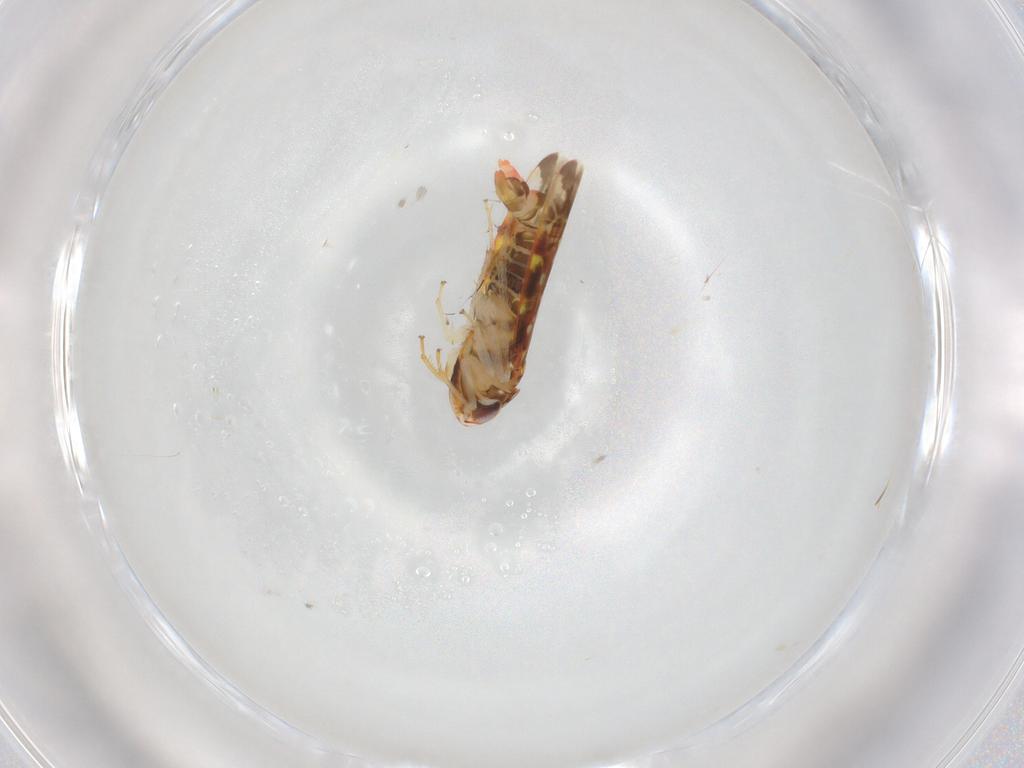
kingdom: Animalia
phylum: Arthropoda
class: Insecta
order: Hemiptera
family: Cicadellidae
